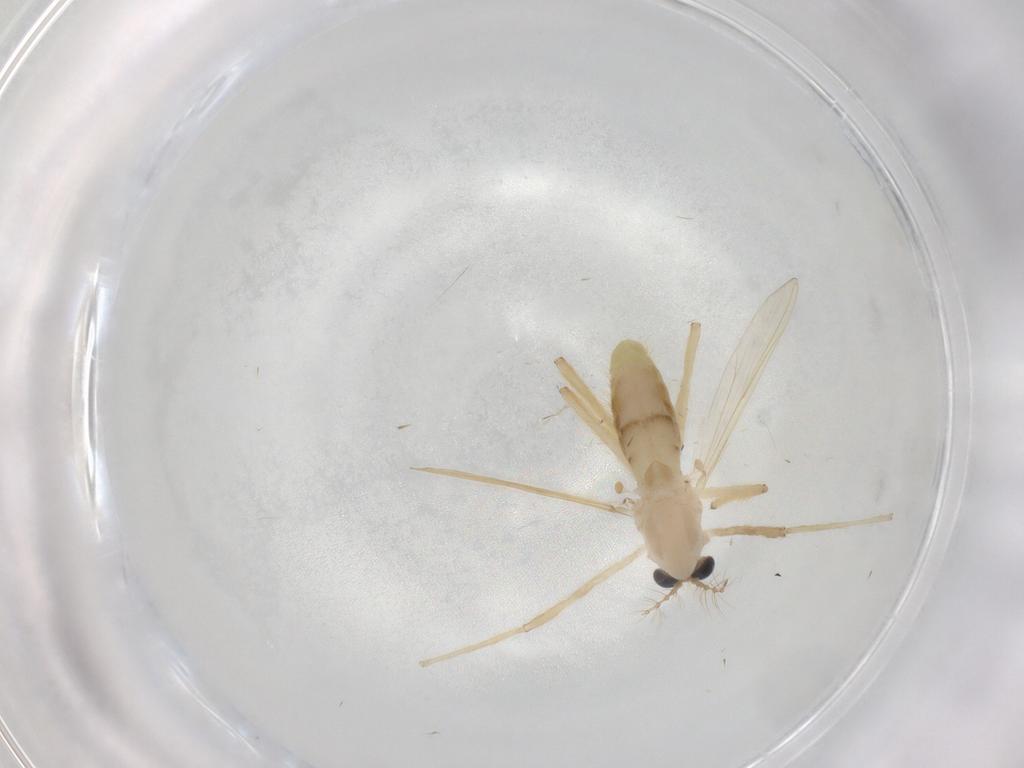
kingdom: Animalia
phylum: Arthropoda
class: Insecta
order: Diptera
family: Chironomidae
